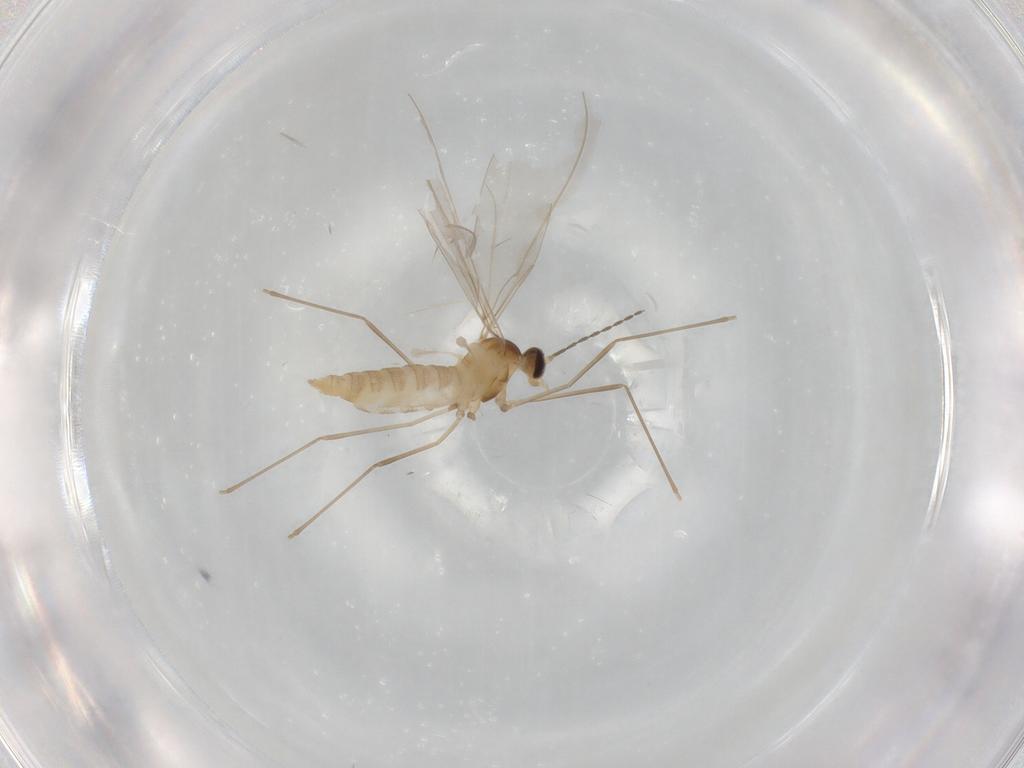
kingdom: Animalia
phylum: Arthropoda
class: Insecta
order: Diptera
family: Cecidomyiidae
